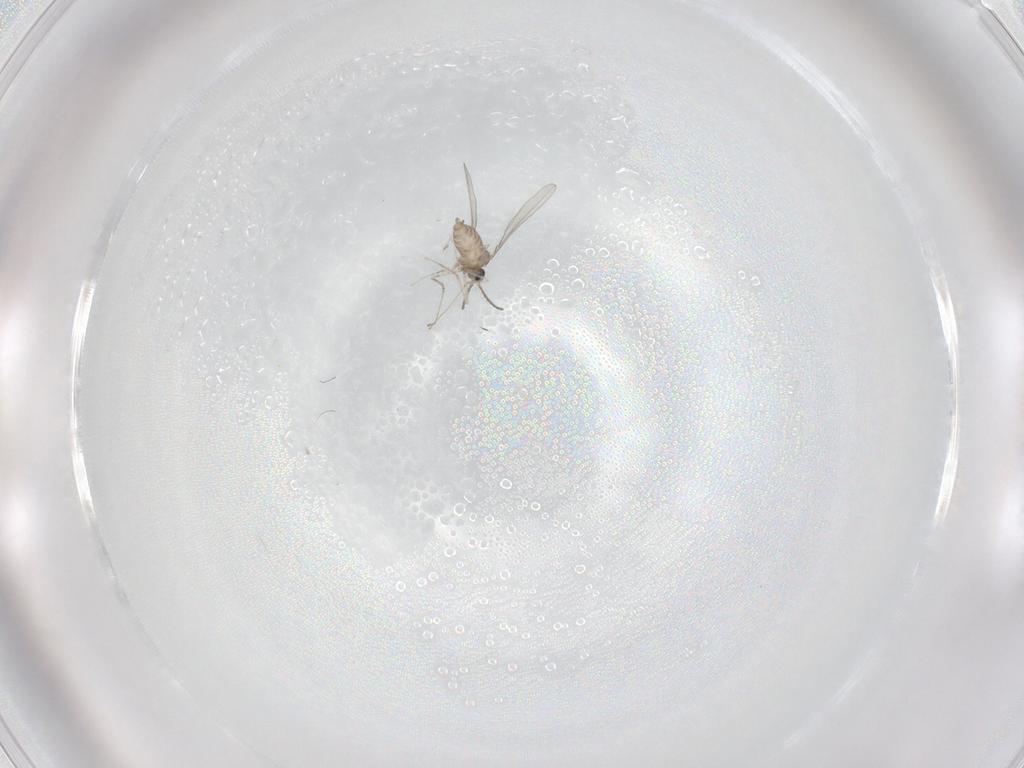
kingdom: Animalia
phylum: Arthropoda
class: Insecta
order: Diptera
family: Cecidomyiidae
